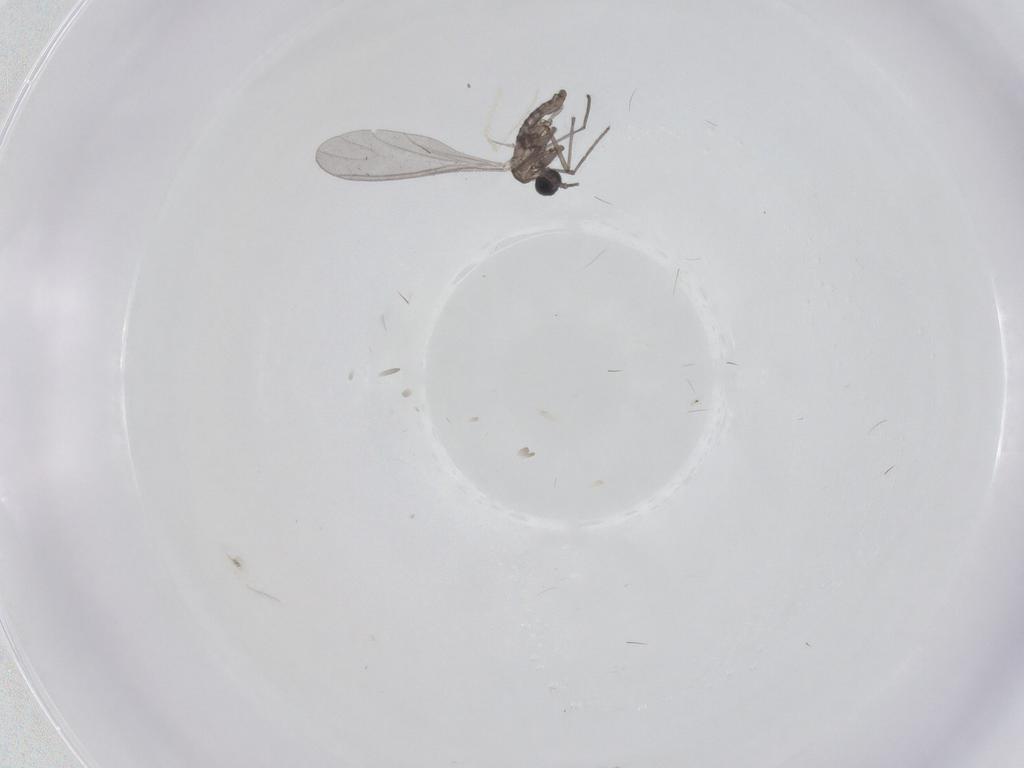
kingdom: Animalia
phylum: Arthropoda
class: Insecta
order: Diptera
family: Sciaridae
